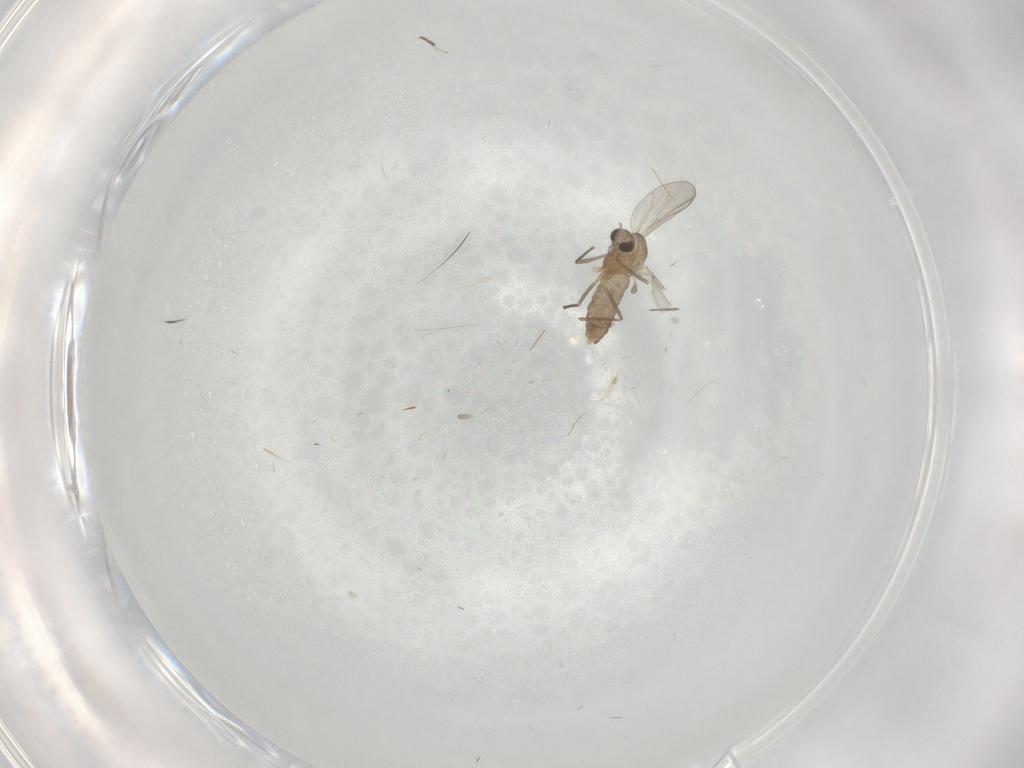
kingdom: Animalia
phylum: Arthropoda
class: Insecta
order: Diptera
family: Chironomidae
